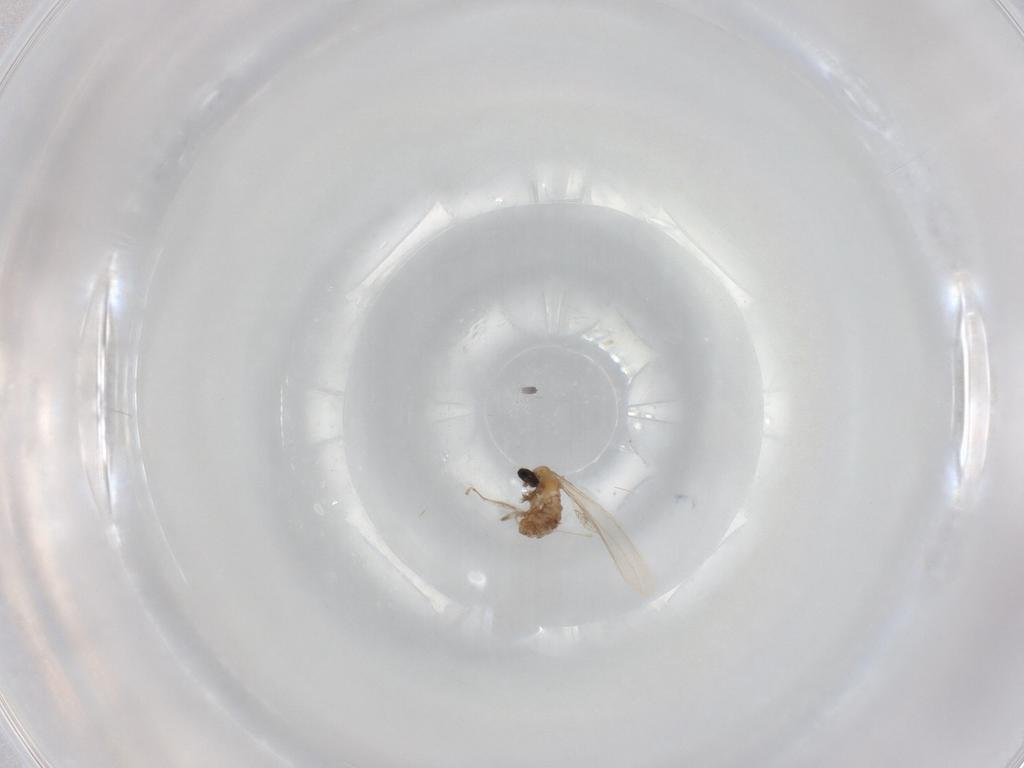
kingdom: Animalia
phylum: Arthropoda
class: Insecta
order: Diptera
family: Cecidomyiidae
